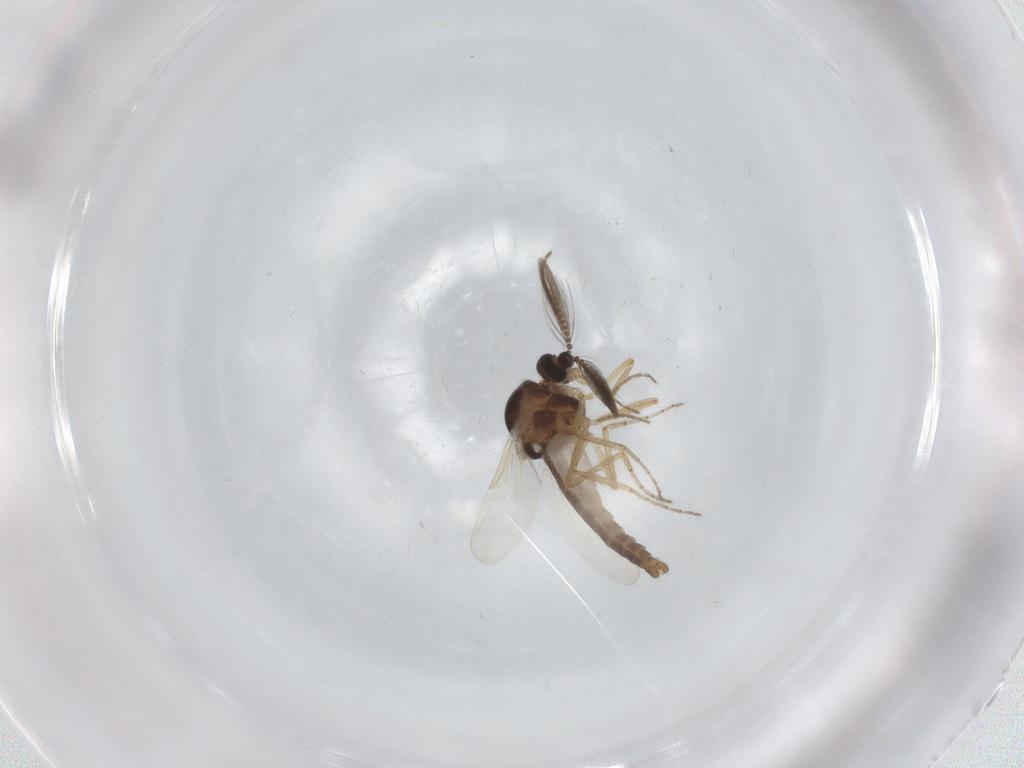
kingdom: Animalia
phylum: Arthropoda
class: Insecta
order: Diptera
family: Ceratopogonidae
